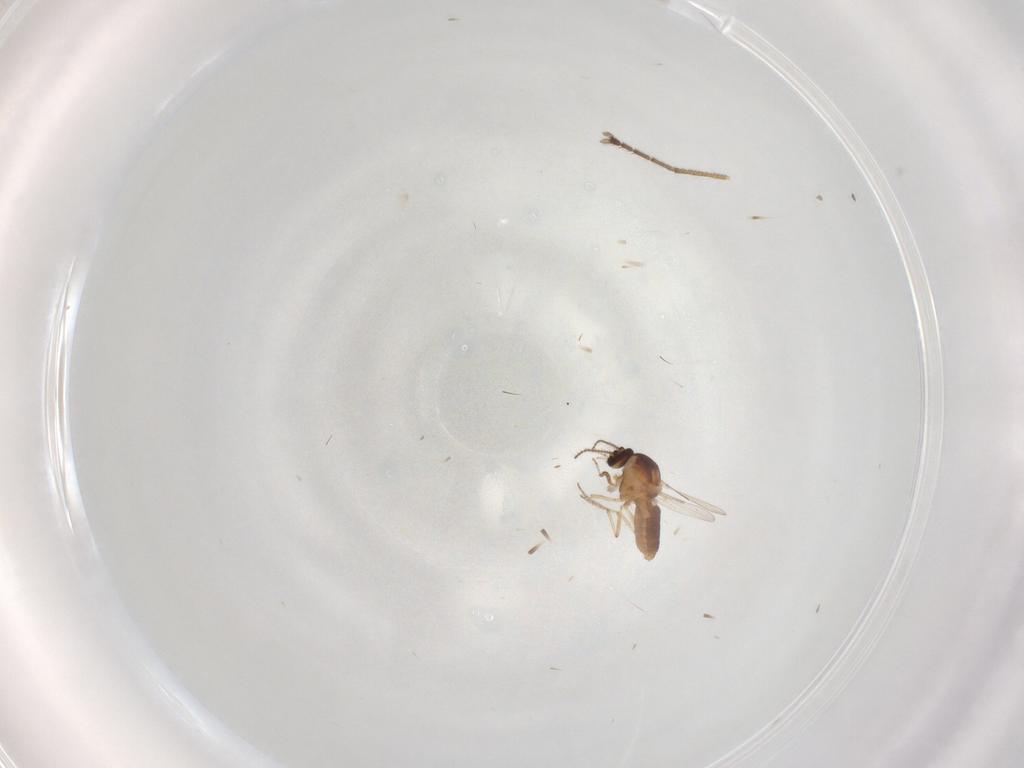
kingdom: Animalia
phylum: Arthropoda
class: Insecta
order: Diptera
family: Ceratopogonidae
